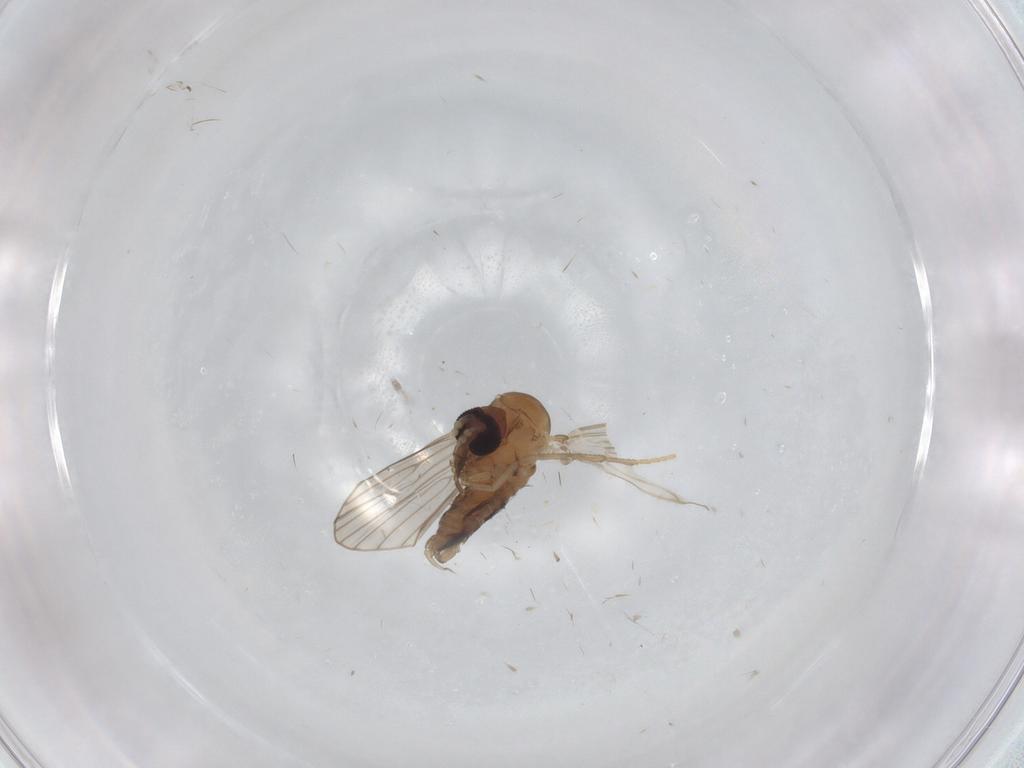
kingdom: Animalia
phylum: Arthropoda
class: Insecta
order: Diptera
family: Psychodidae
